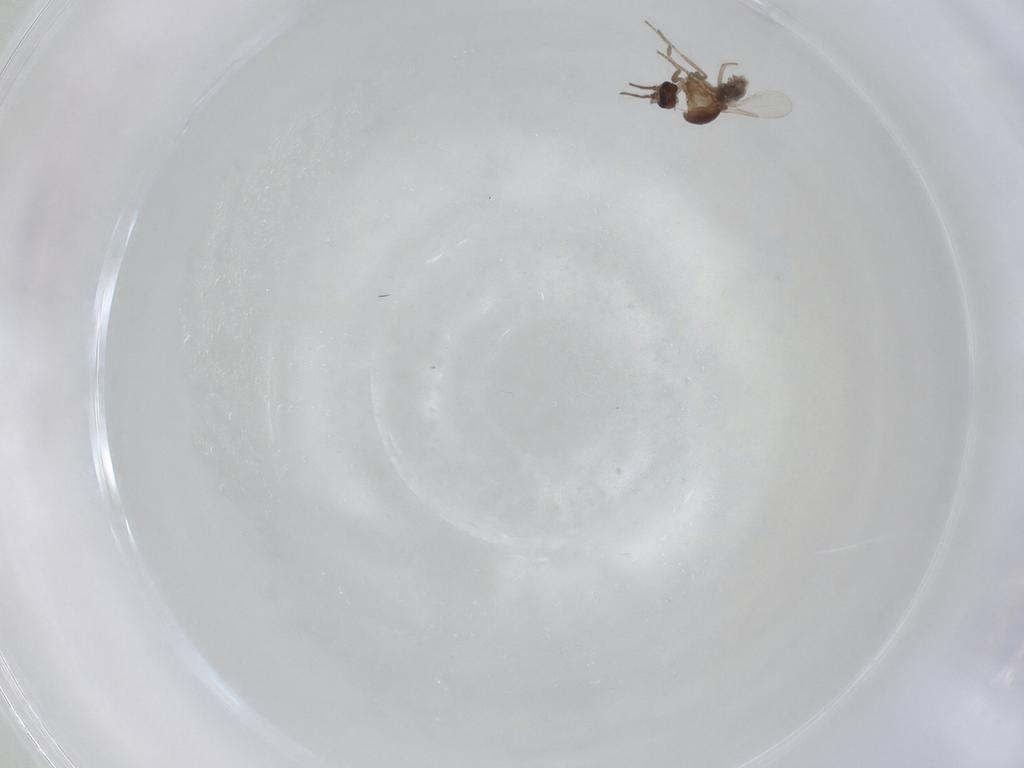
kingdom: Animalia
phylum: Arthropoda
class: Insecta
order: Diptera
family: Ceratopogonidae
